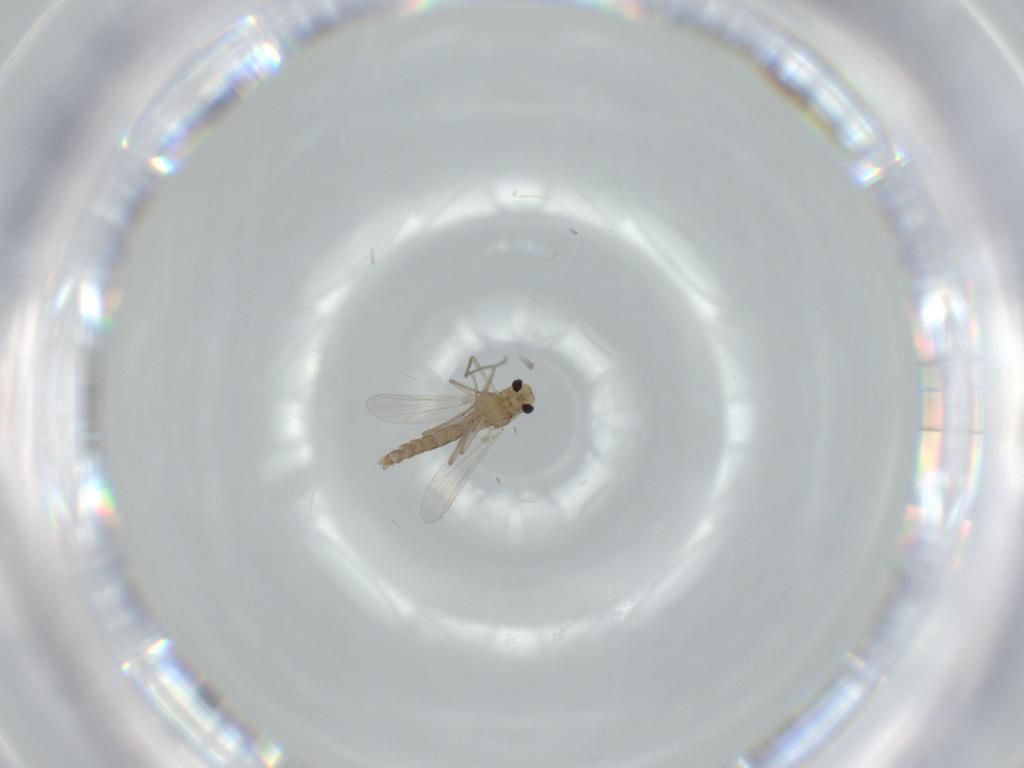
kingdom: Animalia
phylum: Arthropoda
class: Insecta
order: Diptera
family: Chironomidae
